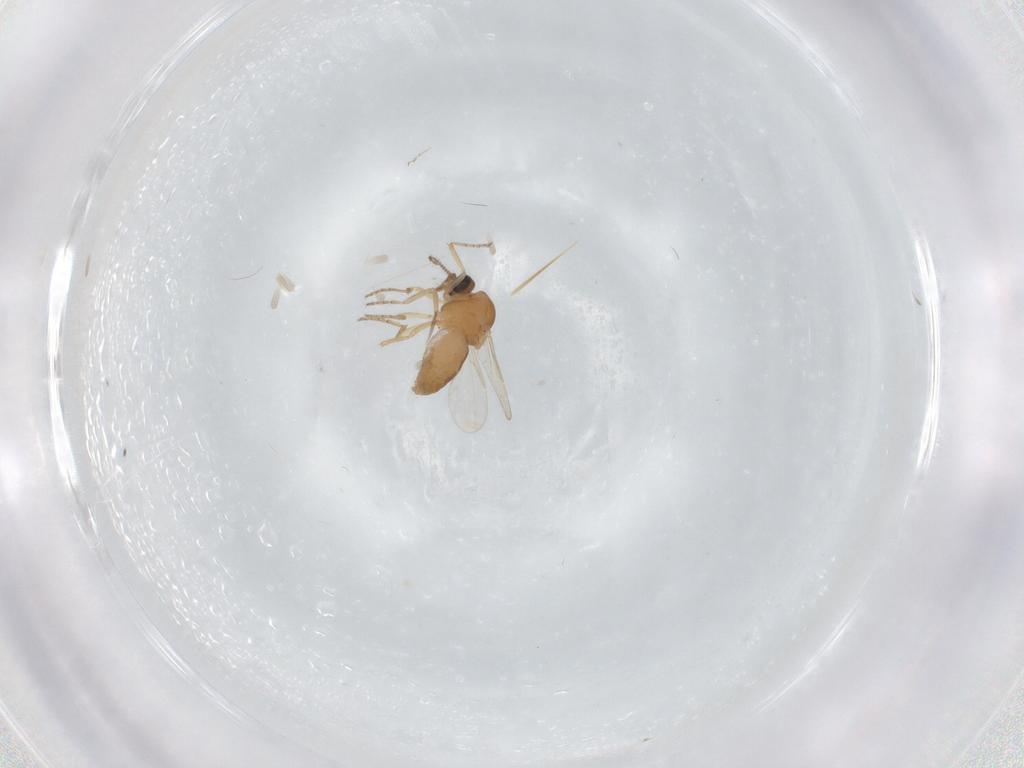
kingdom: Animalia
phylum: Arthropoda
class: Insecta
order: Diptera
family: Ceratopogonidae
